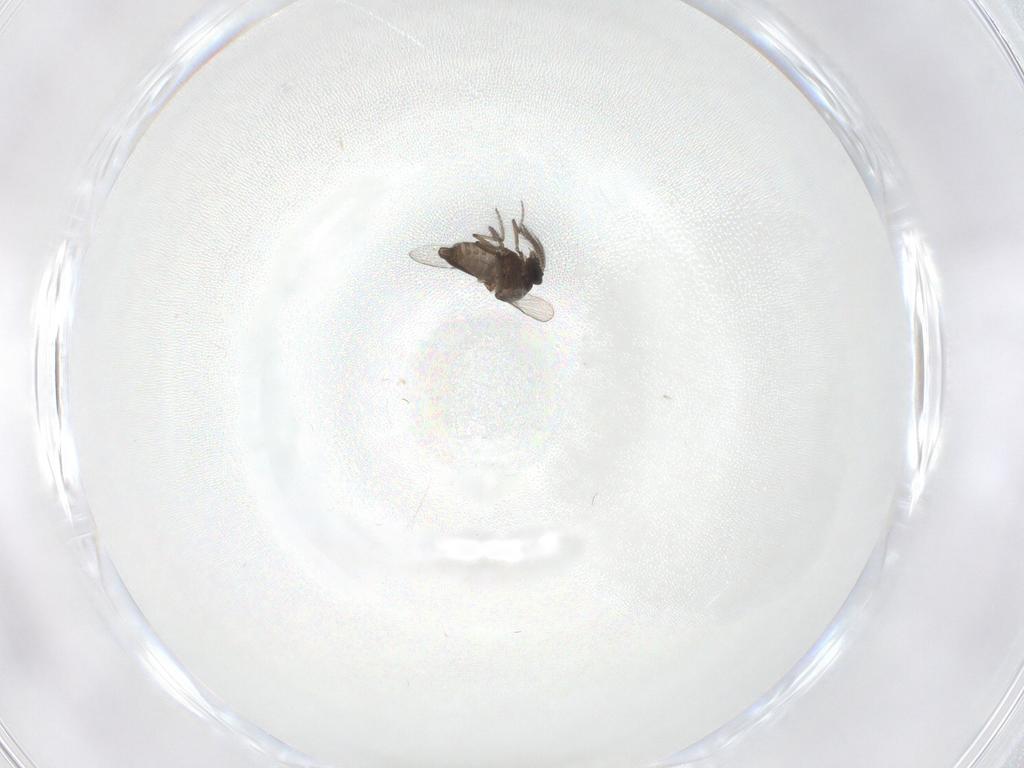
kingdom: Animalia
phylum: Arthropoda
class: Insecta
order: Diptera
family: Ceratopogonidae
